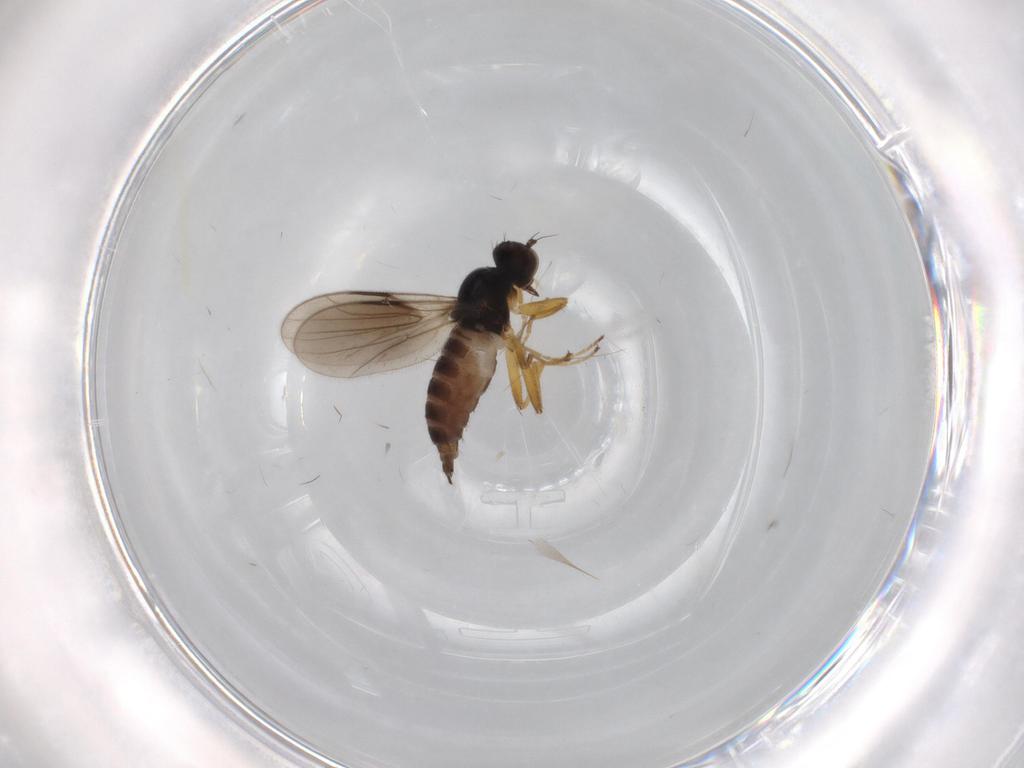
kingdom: Animalia
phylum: Arthropoda
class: Insecta
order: Diptera
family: Hybotidae
